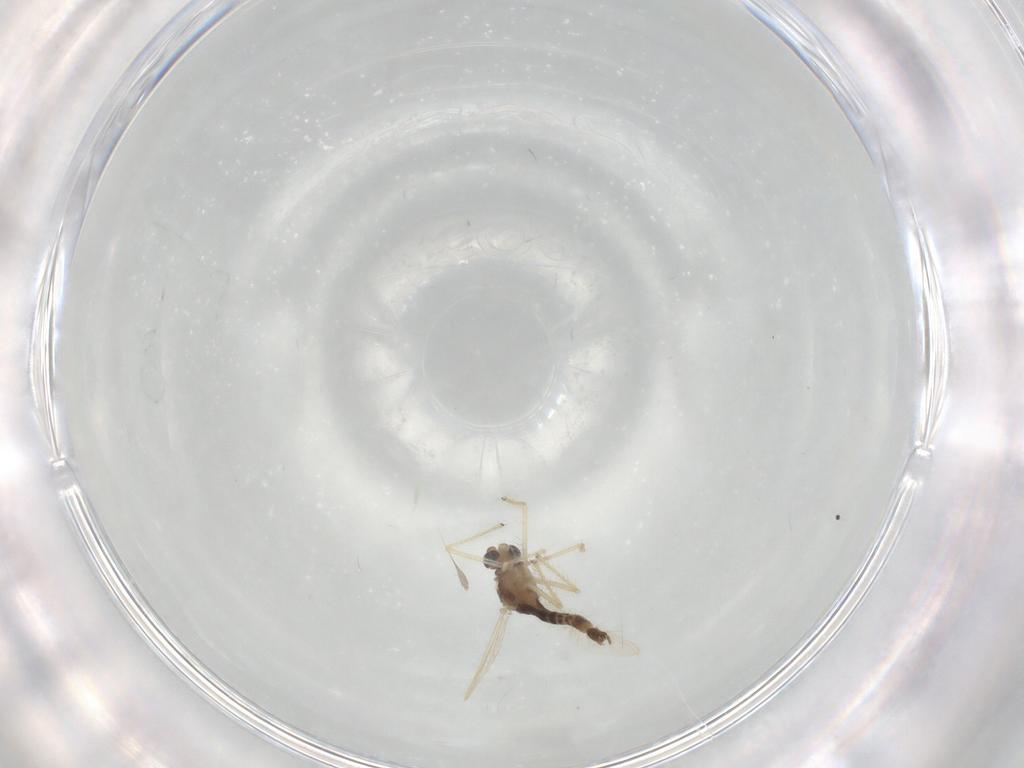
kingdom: Animalia
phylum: Arthropoda
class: Insecta
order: Diptera
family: Chironomidae
